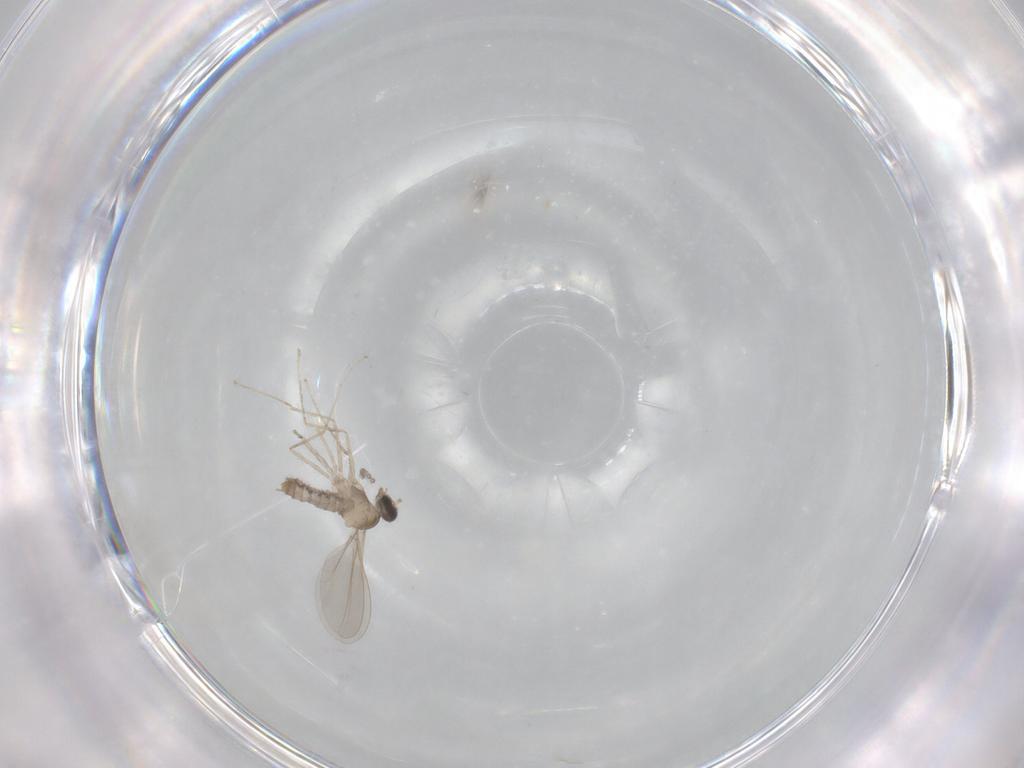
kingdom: Animalia
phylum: Arthropoda
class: Insecta
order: Diptera
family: Cecidomyiidae
